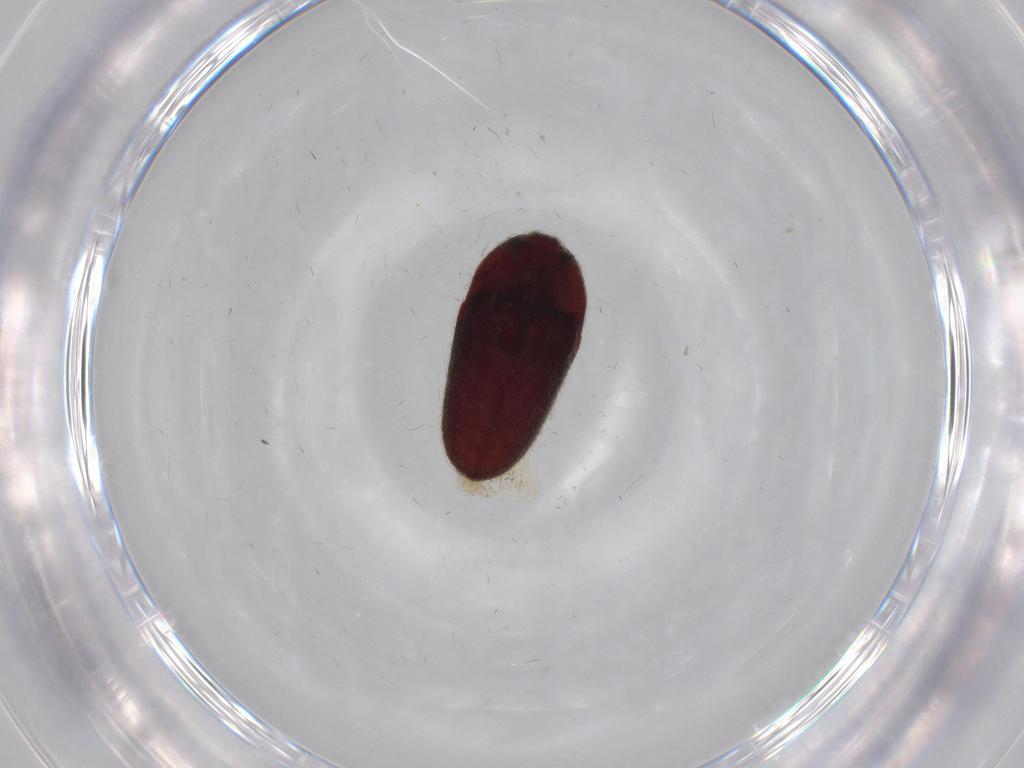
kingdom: Animalia
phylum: Arthropoda
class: Insecta
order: Coleoptera
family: Throscidae
